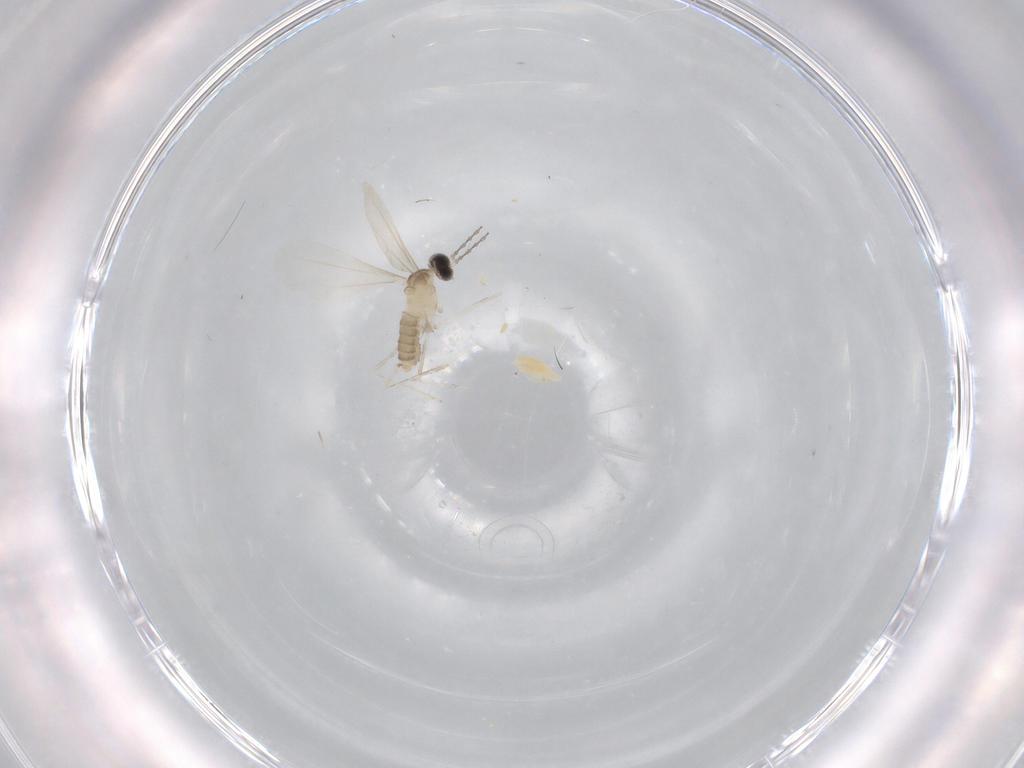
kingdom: Animalia
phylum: Arthropoda
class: Insecta
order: Diptera
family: Cecidomyiidae
